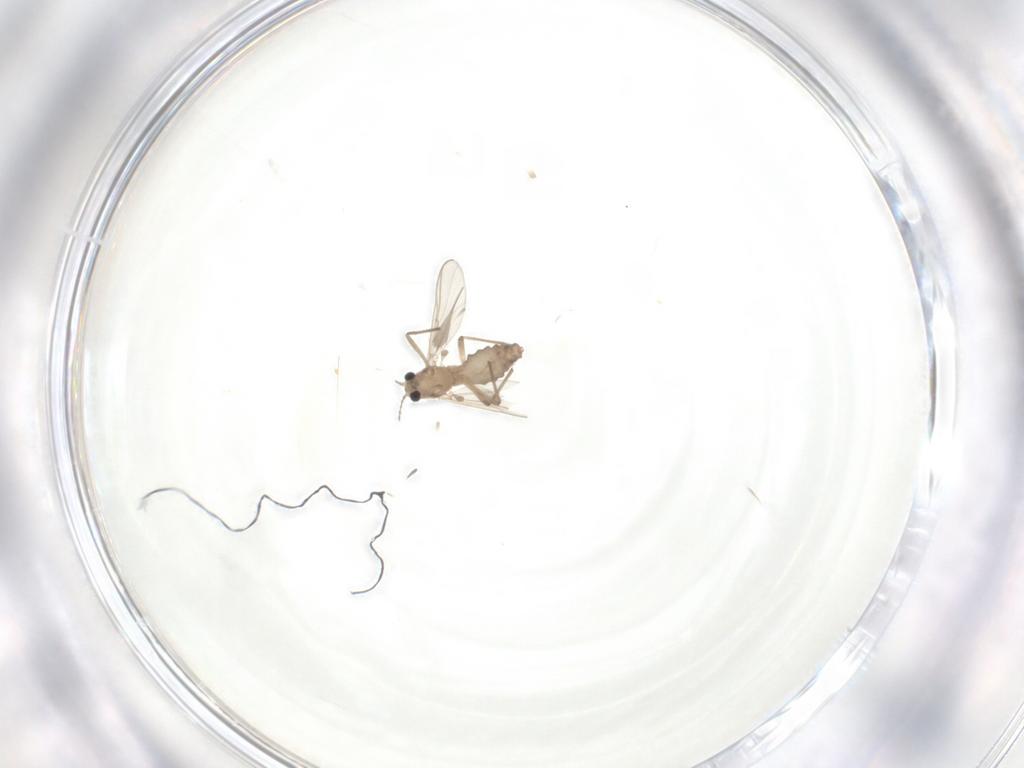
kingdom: Animalia
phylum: Arthropoda
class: Insecta
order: Diptera
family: Chironomidae
